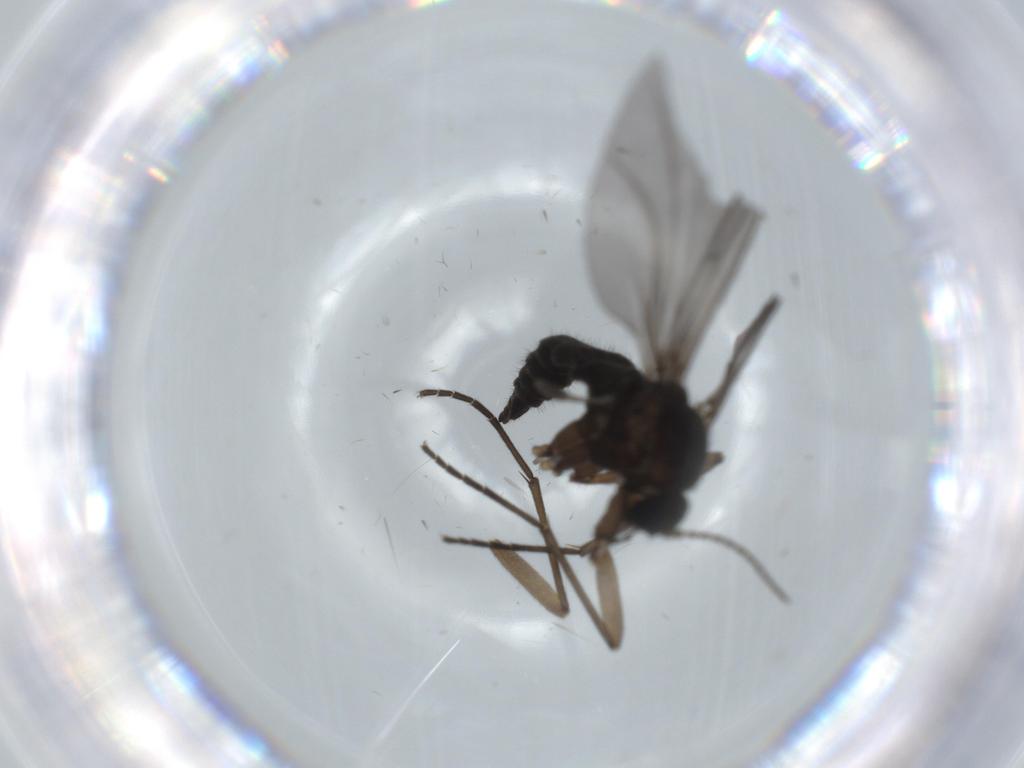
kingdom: Animalia
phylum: Arthropoda
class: Insecta
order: Diptera
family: Sciaridae
